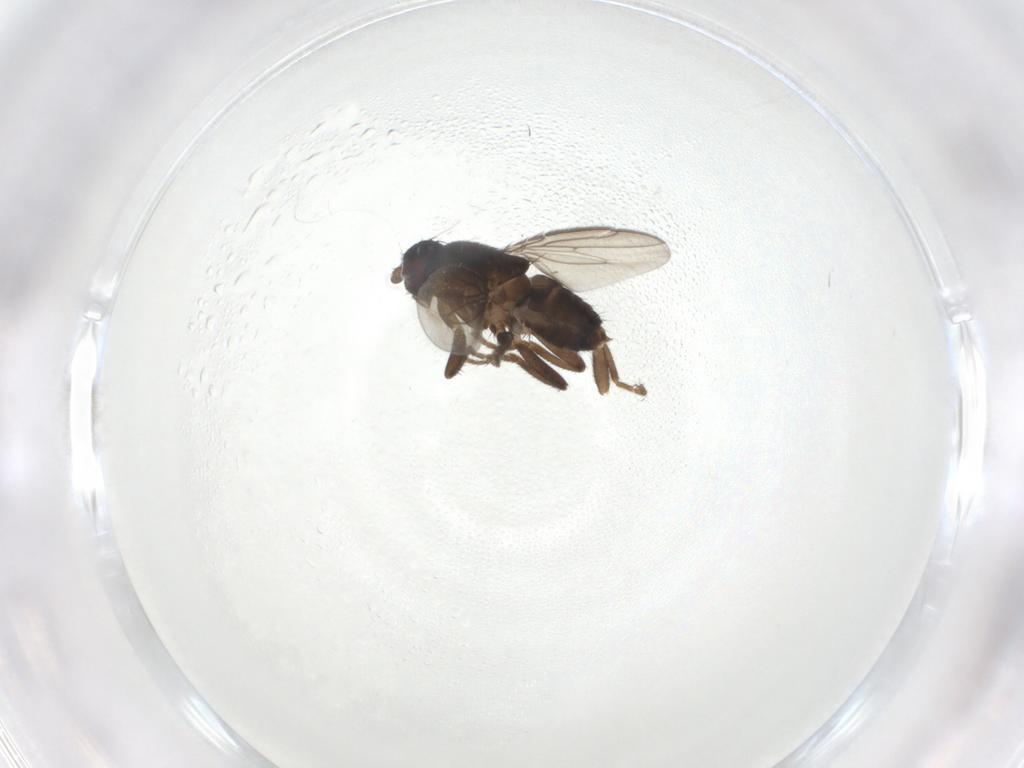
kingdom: Animalia
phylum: Arthropoda
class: Insecta
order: Diptera
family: Sphaeroceridae
